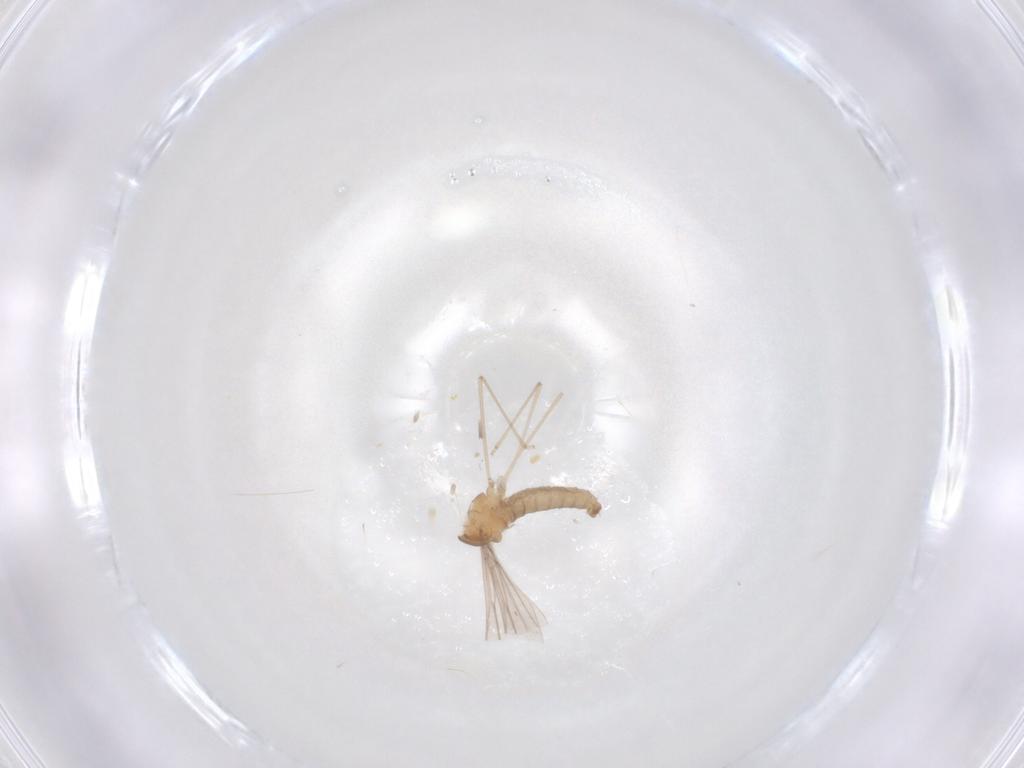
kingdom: Animalia
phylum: Arthropoda
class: Insecta
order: Diptera
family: Cecidomyiidae
